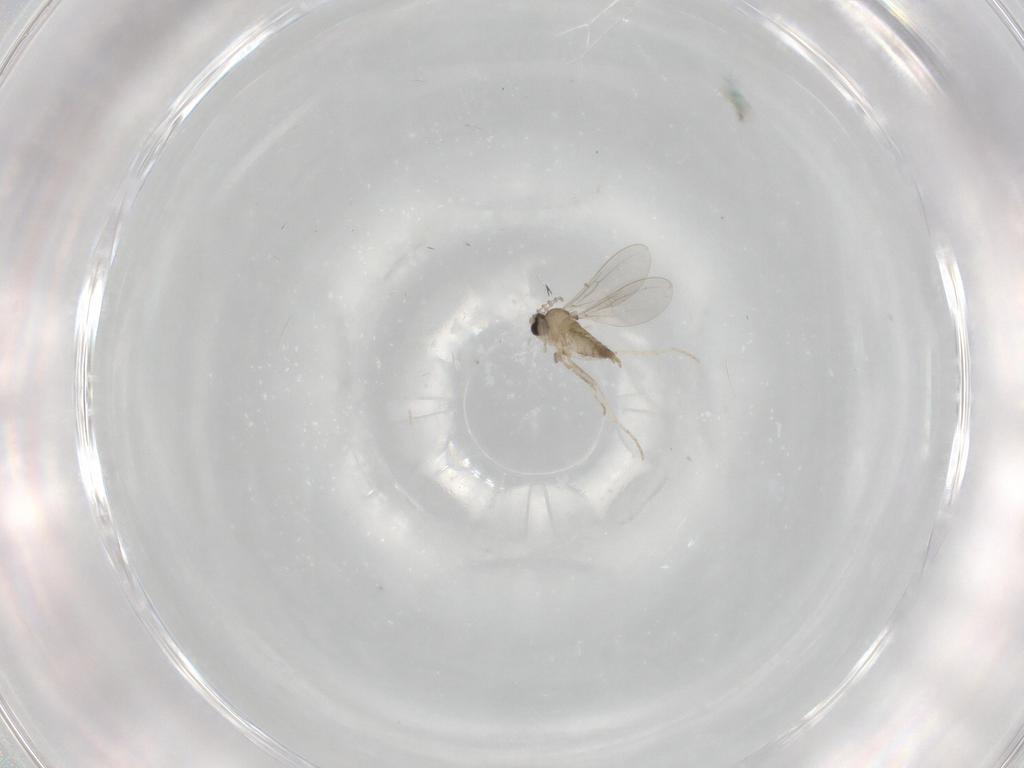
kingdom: Animalia
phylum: Arthropoda
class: Insecta
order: Diptera
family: Cecidomyiidae
